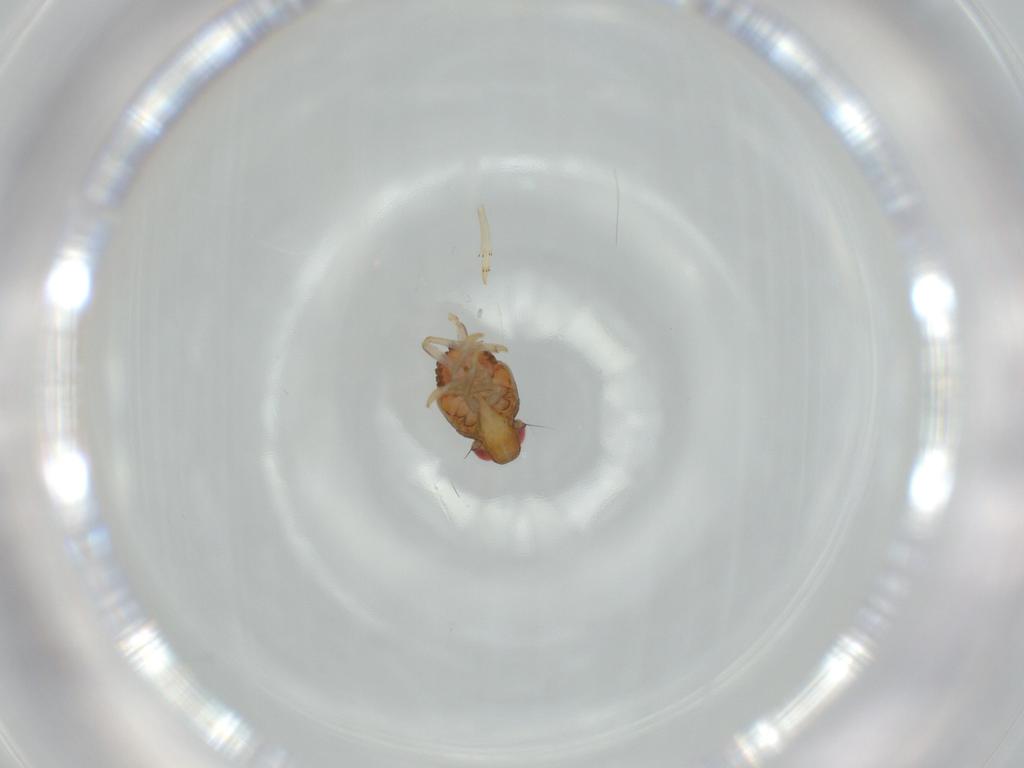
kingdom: Animalia
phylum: Arthropoda
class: Insecta
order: Hemiptera
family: Issidae
